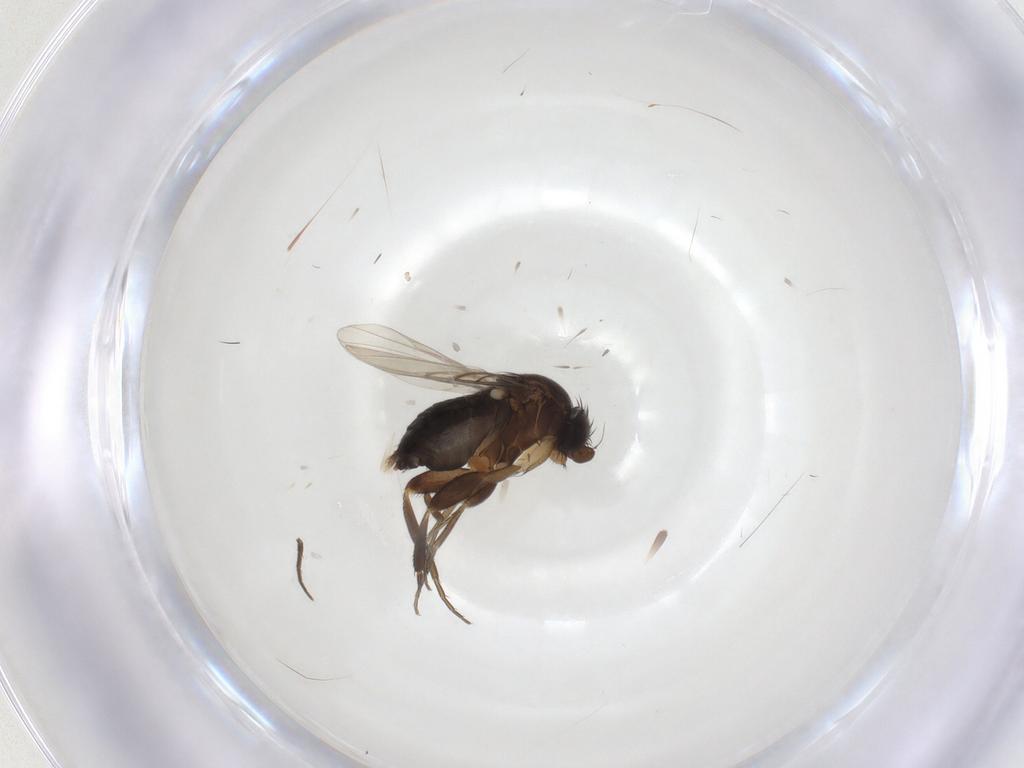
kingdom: Animalia
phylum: Arthropoda
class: Insecta
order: Diptera
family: Phoridae
